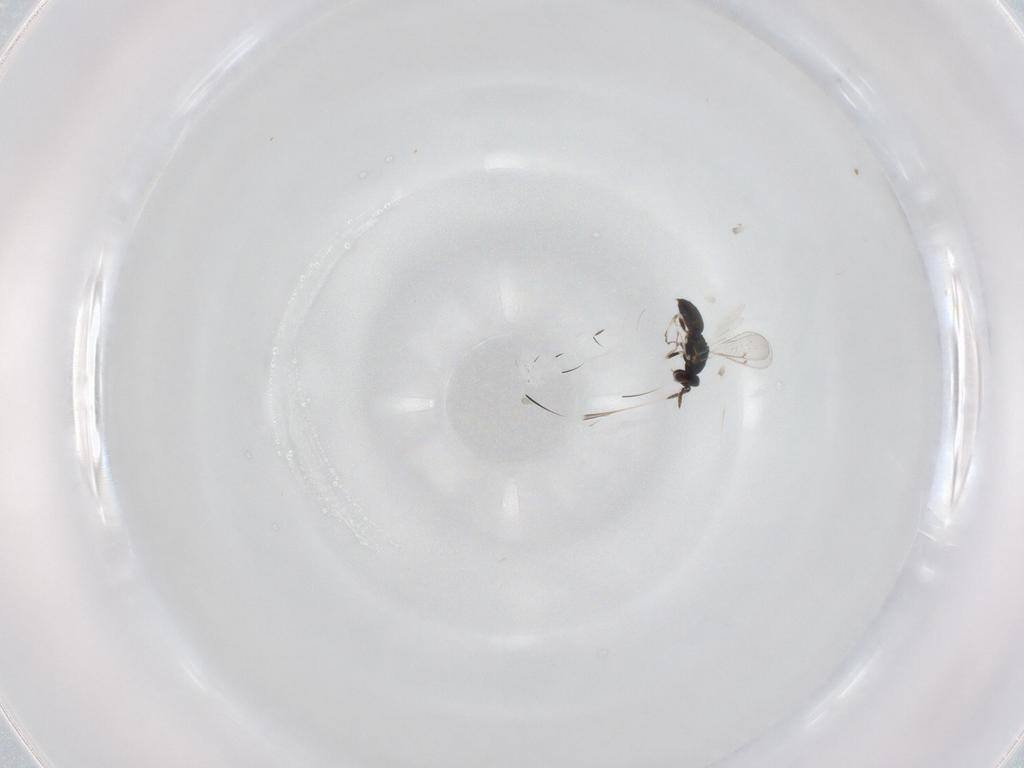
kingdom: Animalia
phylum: Arthropoda
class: Insecta
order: Hymenoptera
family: Eulophidae
